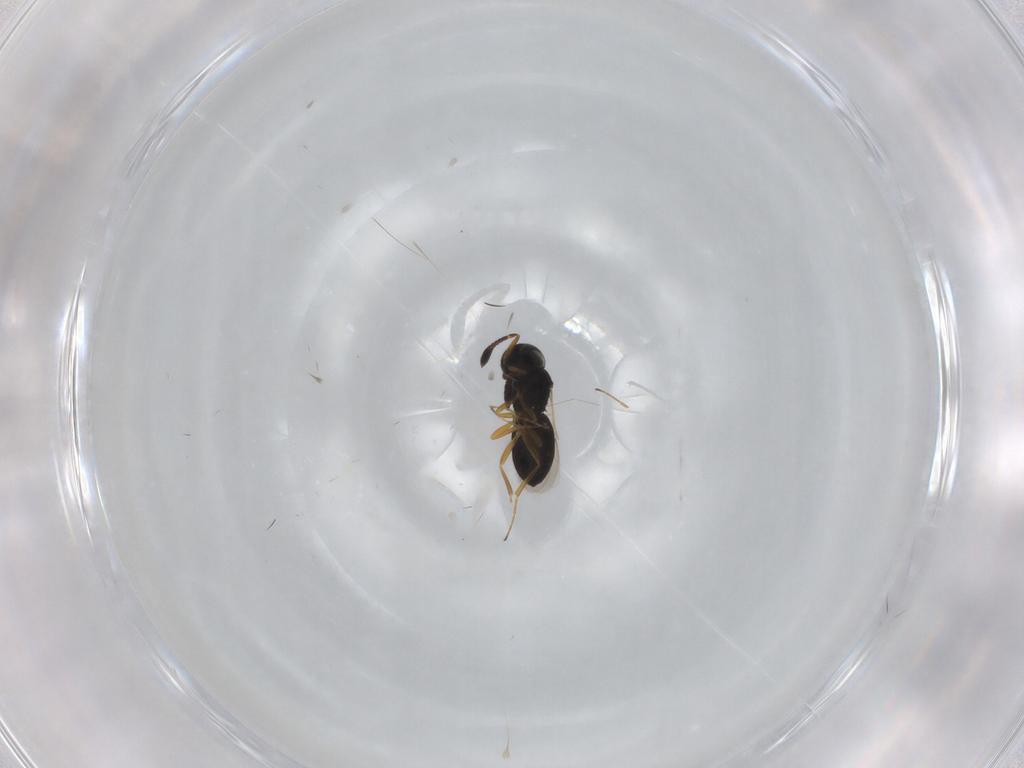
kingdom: Animalia
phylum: Arthropoda
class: Insecta
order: Hymenoptera
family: Scelionidae
